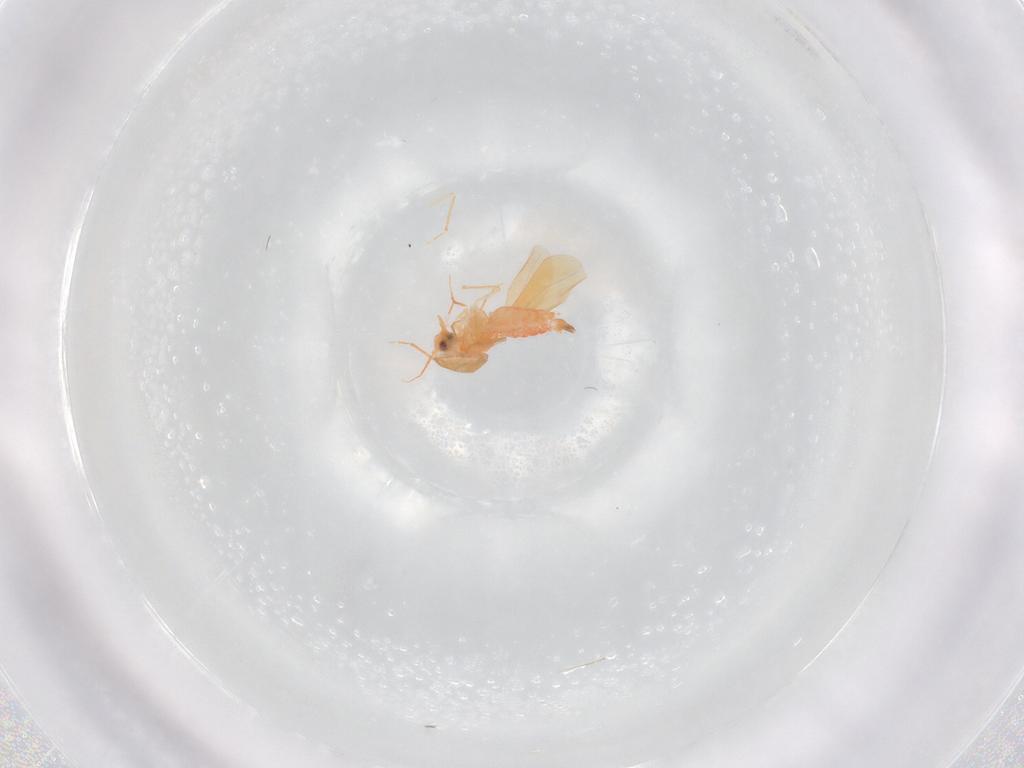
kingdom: Animalia
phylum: Arthropoda
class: Insecta
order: Hemiptera
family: Aleyrodidae
